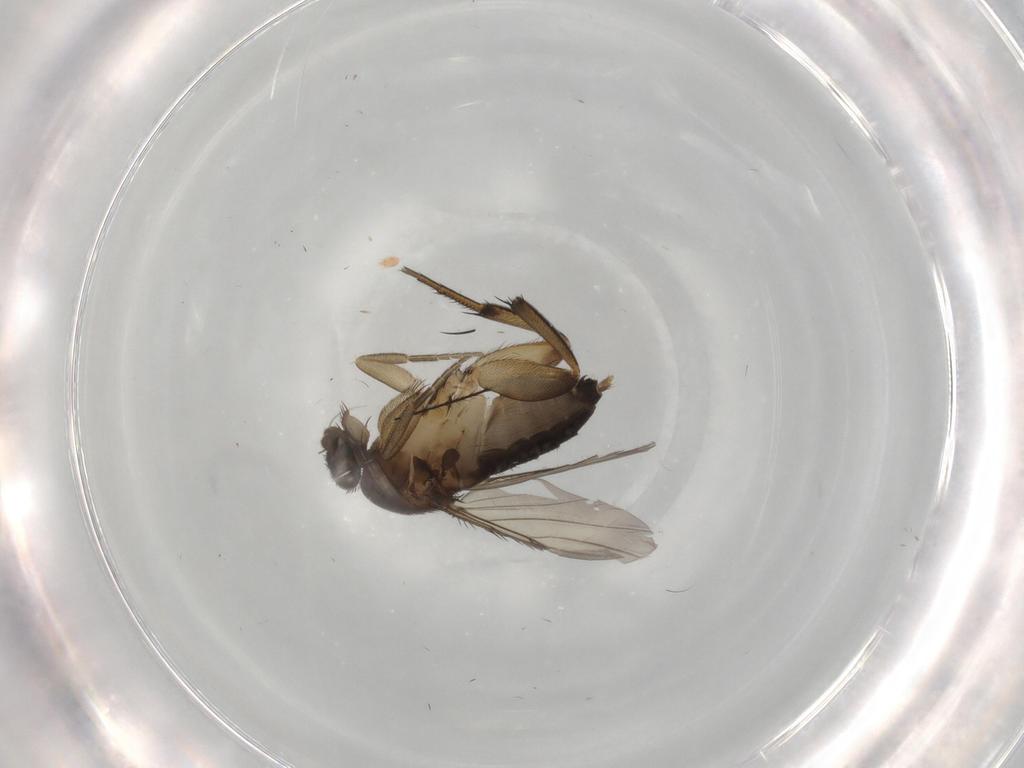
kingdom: Animalia
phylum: Arthropoda
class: Insecta
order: Diptera
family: Phoridae
